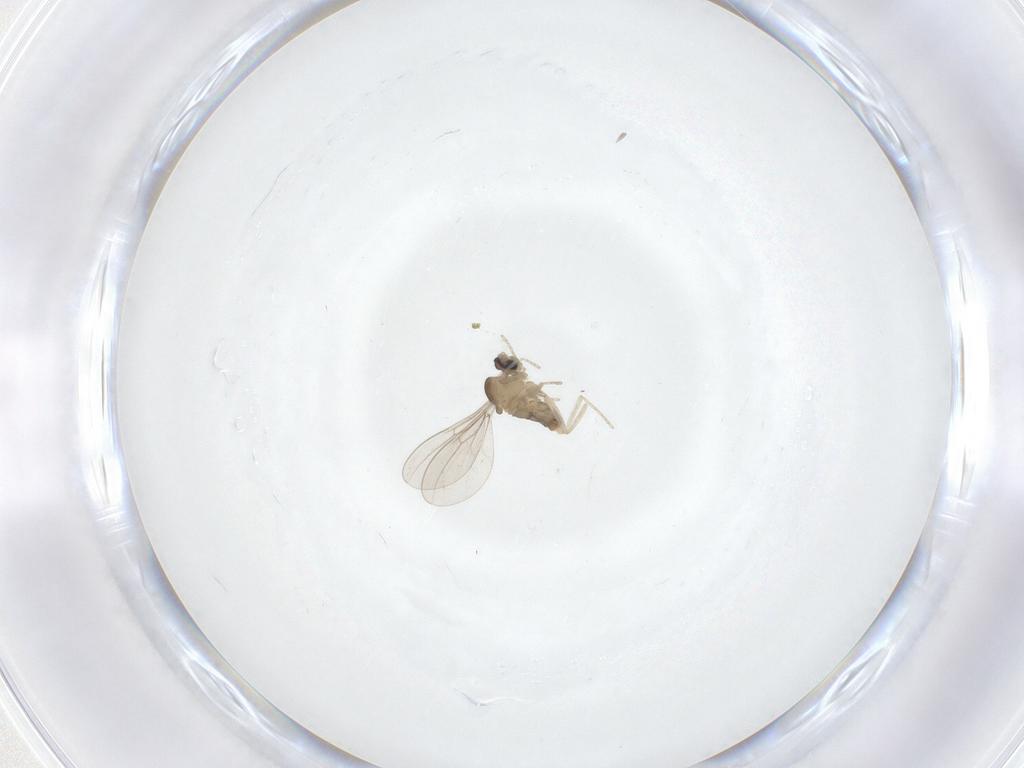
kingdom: Animalia
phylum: Arthropoda
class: Insecta
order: Diptera
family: Cecidomyiidae
